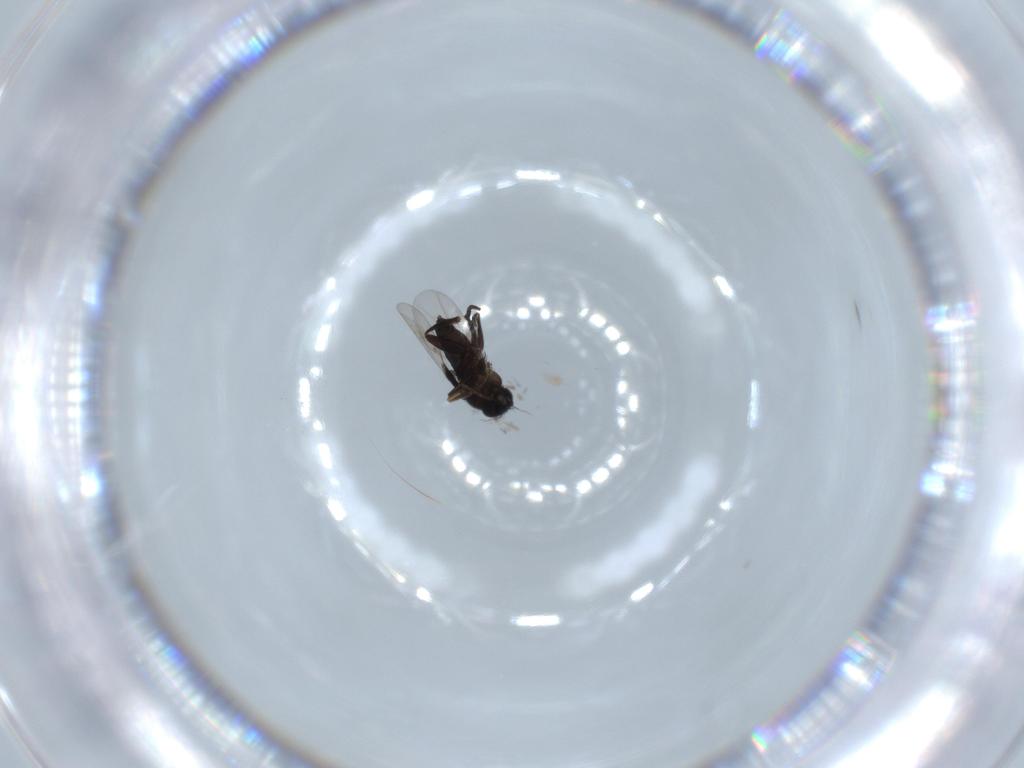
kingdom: Animalia
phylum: Arthropoda
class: Insecta
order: Diptera
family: Phoridae
